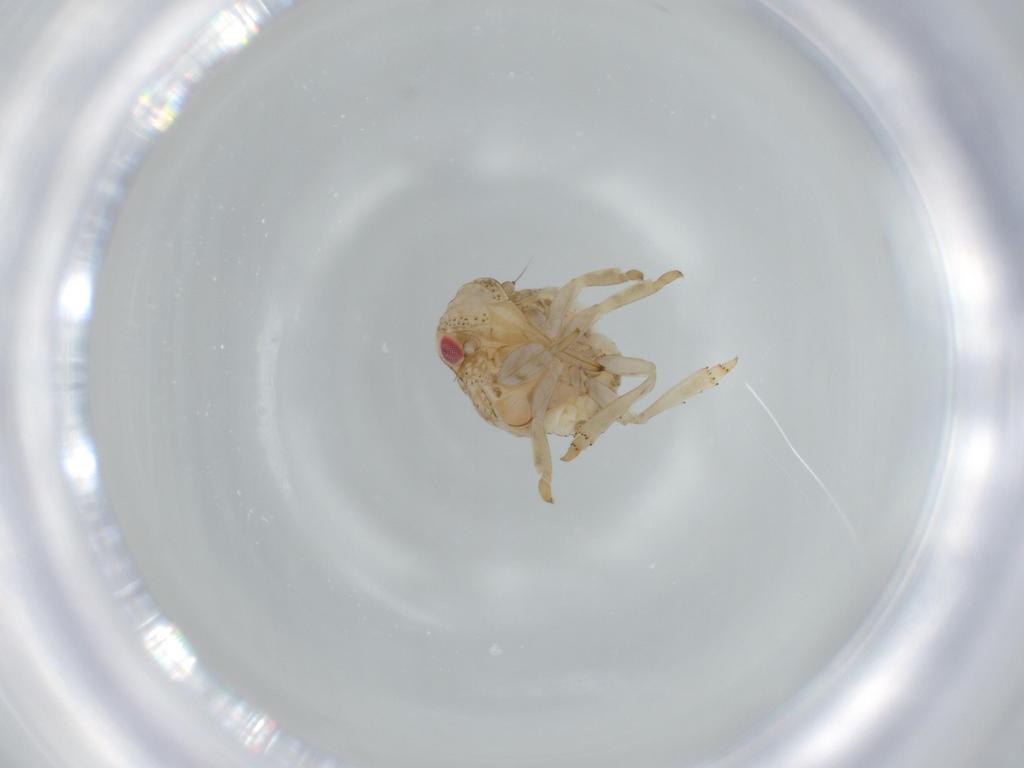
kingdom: Animalia
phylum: Arthropoda
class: Insecta
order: Hemiptera
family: Acanaloniidae
